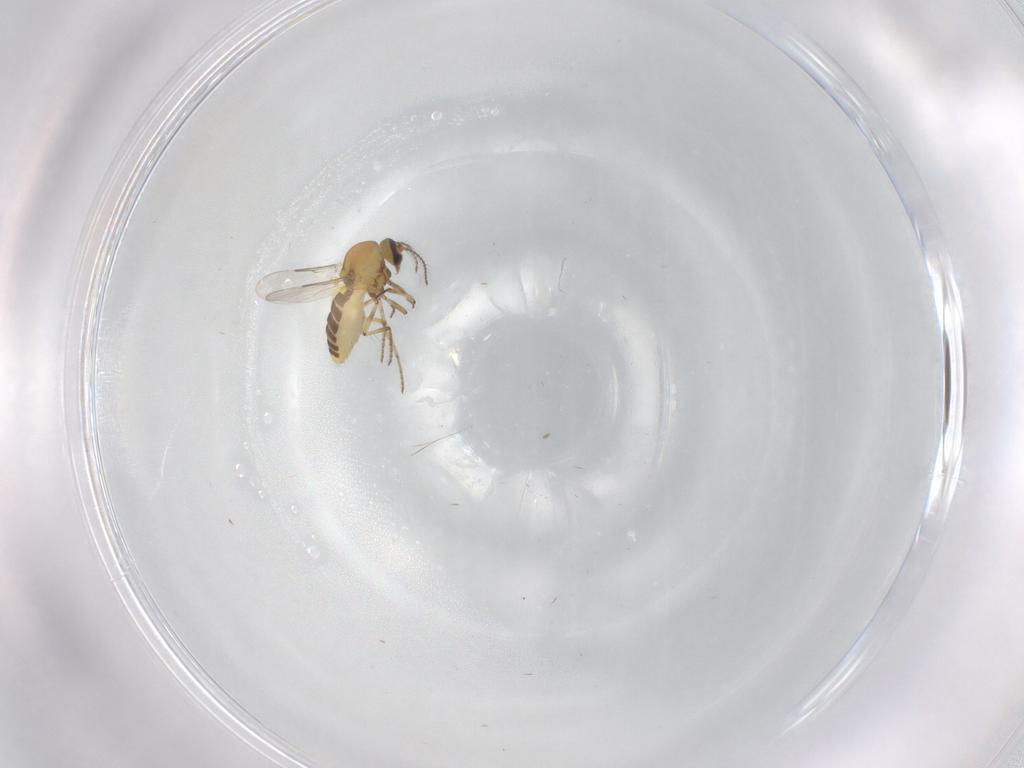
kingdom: Animalia
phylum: Arthropoda
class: Insecta
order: Diptera
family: Ceratopogonidae
